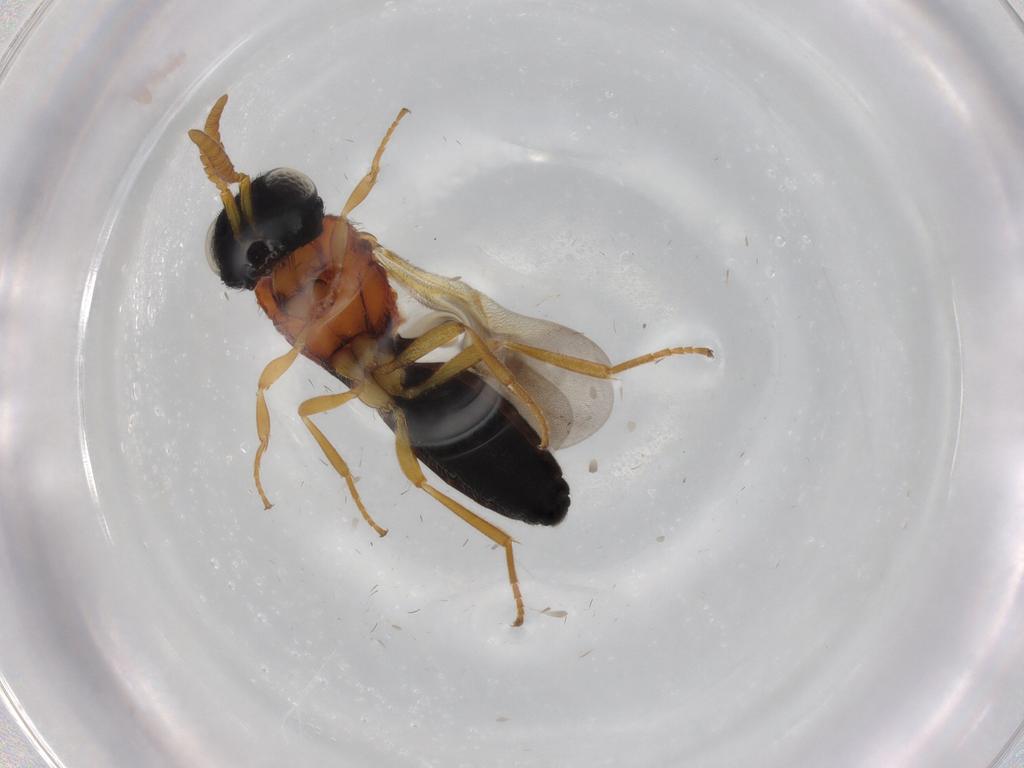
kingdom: Animalia
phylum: Arthropoda
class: Insecta
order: Hymenoptera
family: Scelionidae
